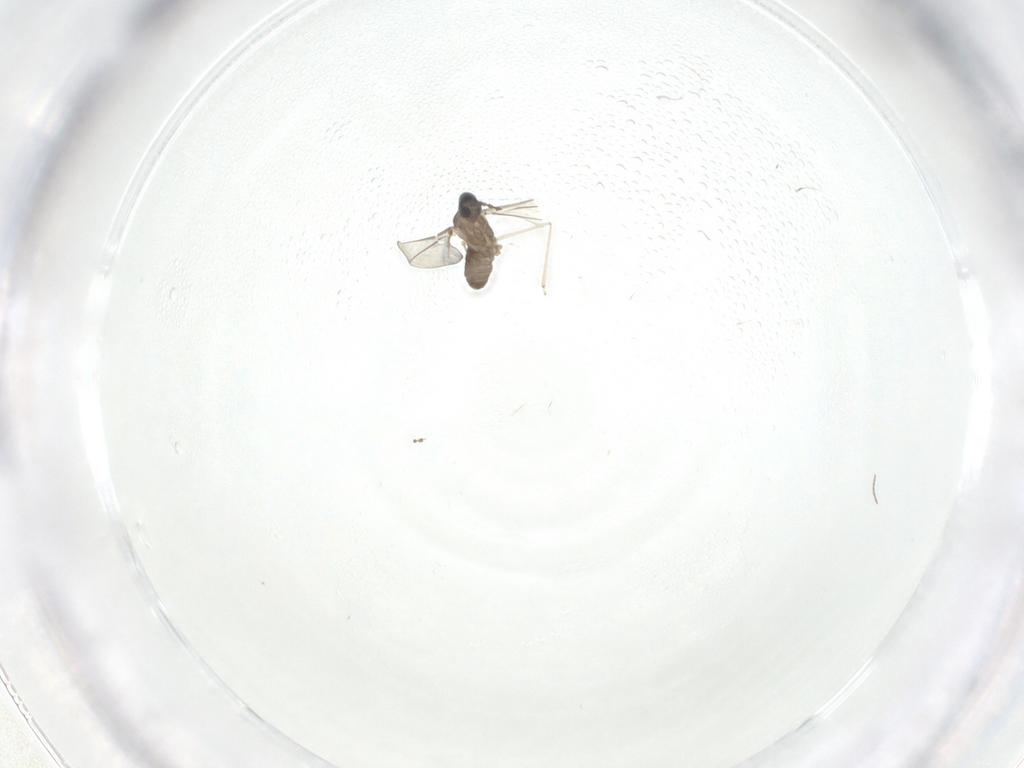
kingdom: Animalia
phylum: Arthropoda
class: Insecta
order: Diptera
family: Cecidomyiidae
